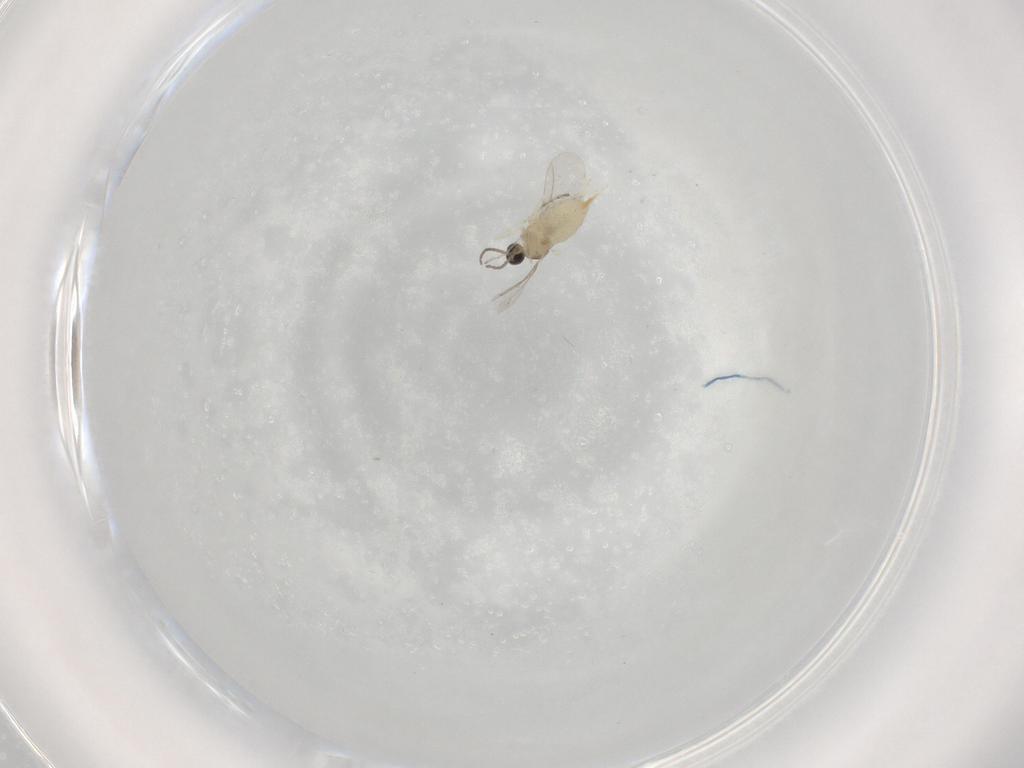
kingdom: Animalia
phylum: Arthropoda
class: Insecta
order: Diptera
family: Cecidomyiidae
